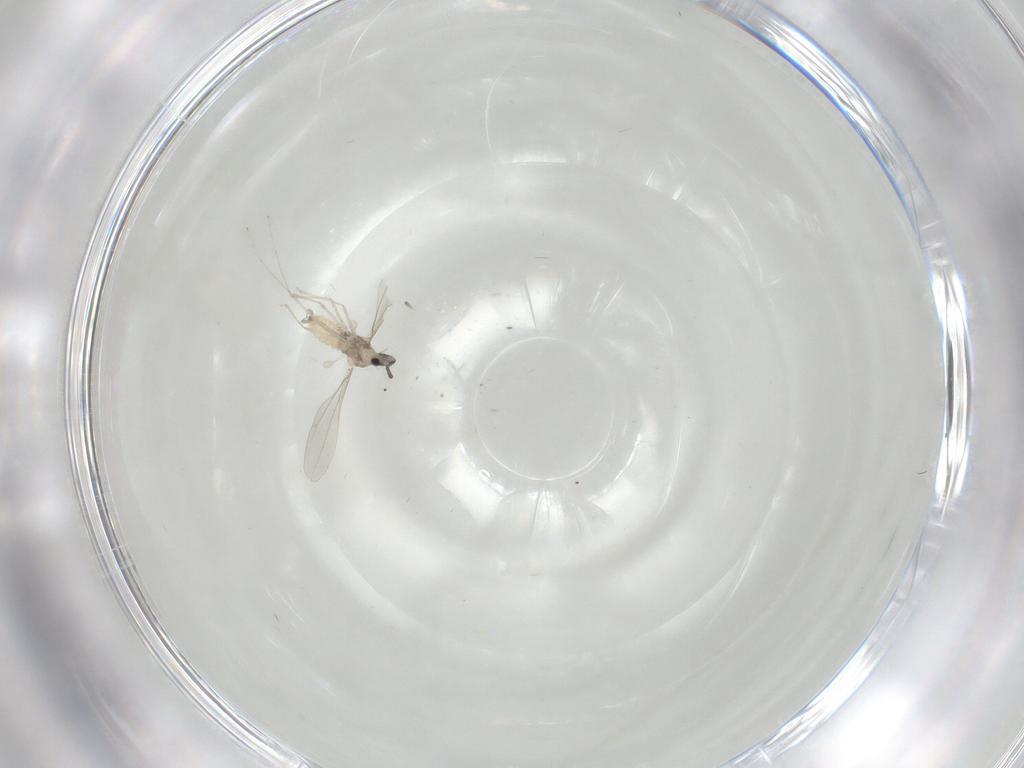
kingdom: Animalia
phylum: Arthropoda
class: Insecta
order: Diptera
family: Cecidomyiidae
